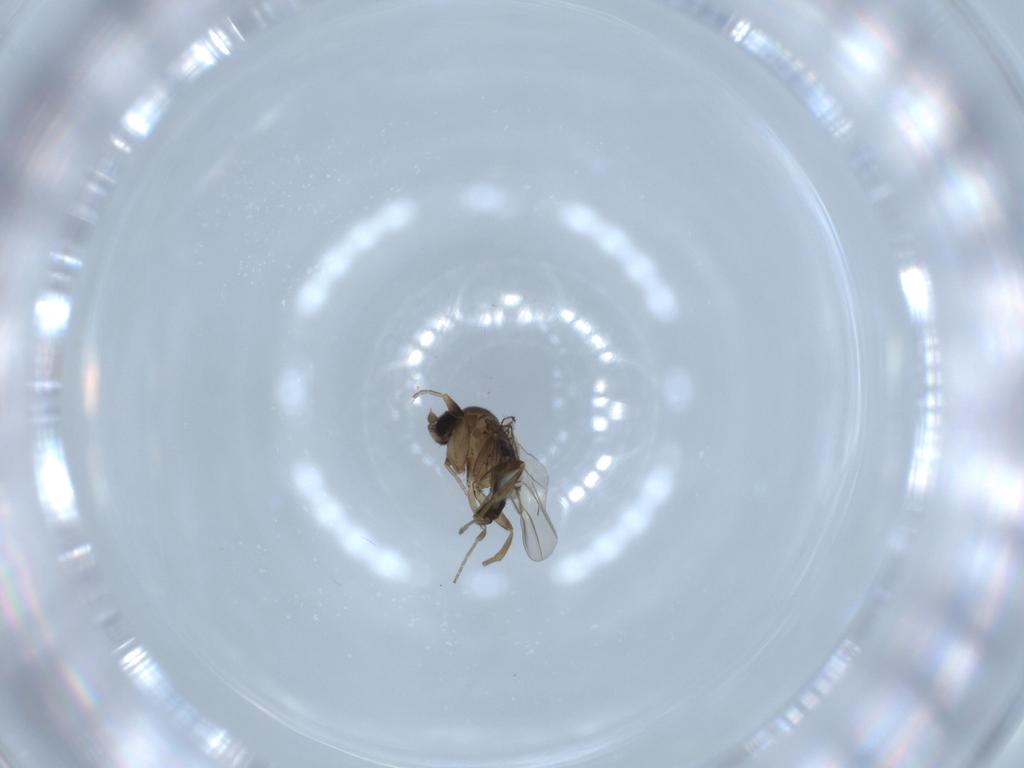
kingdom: Animalia
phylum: Arthropoda
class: Insecta
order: Diptera
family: Phoridae
